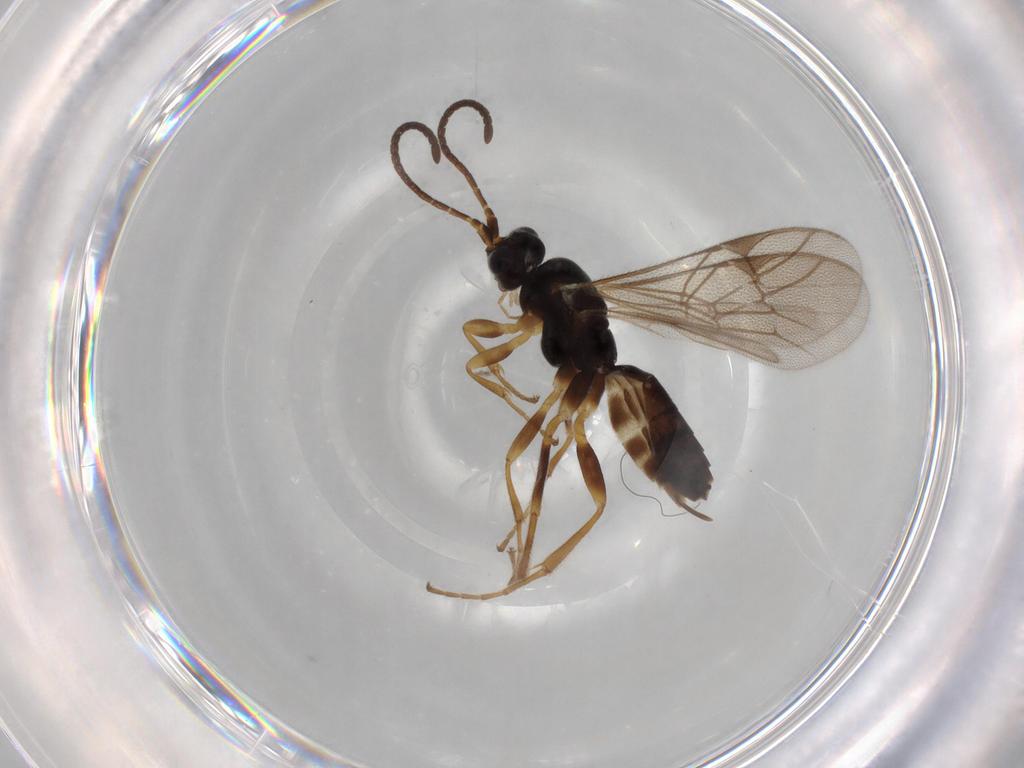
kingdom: Animalia
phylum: Arthropoda
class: Insecta
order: Hymenoptera
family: Ichneumonidae
